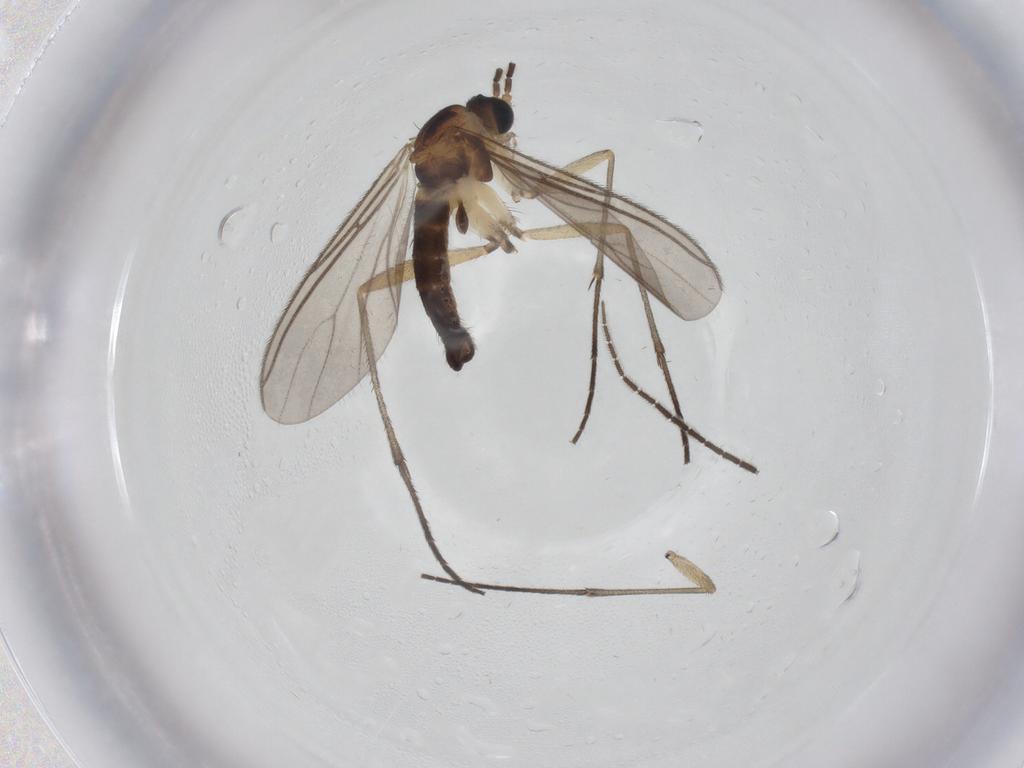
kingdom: Animalia
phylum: Arthropoda
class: Insecta
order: Diptera
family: Sciaridae
